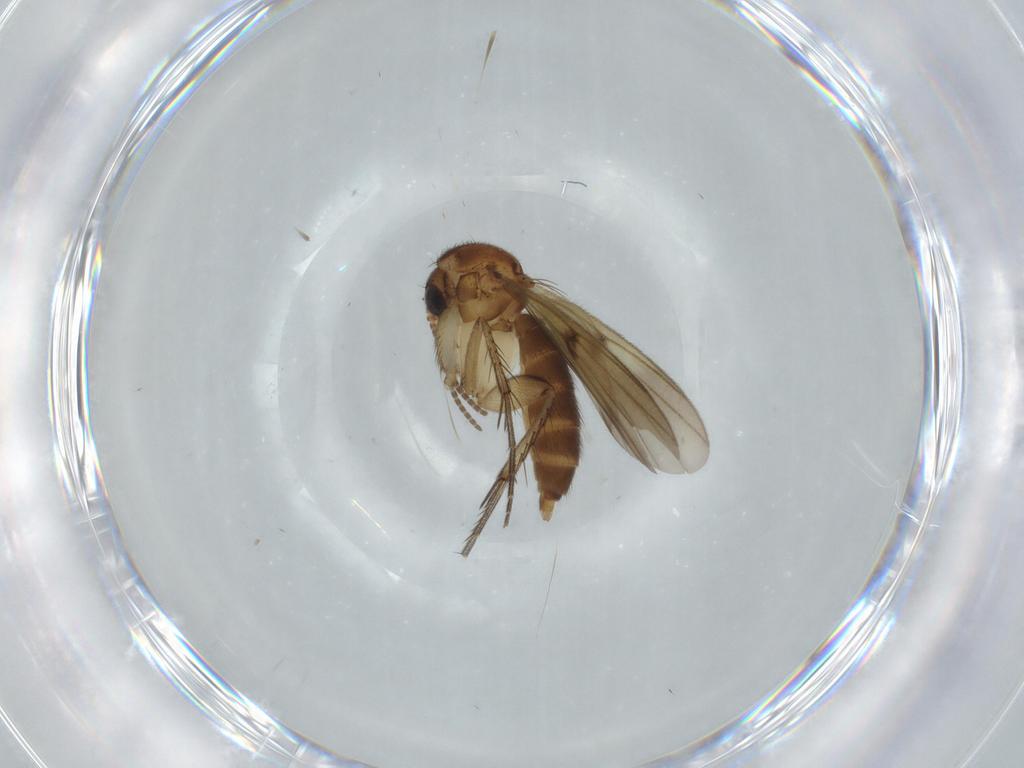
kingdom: Animalia
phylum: Arthropoda
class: Insecta
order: Diptera
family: Mycetophilidae
